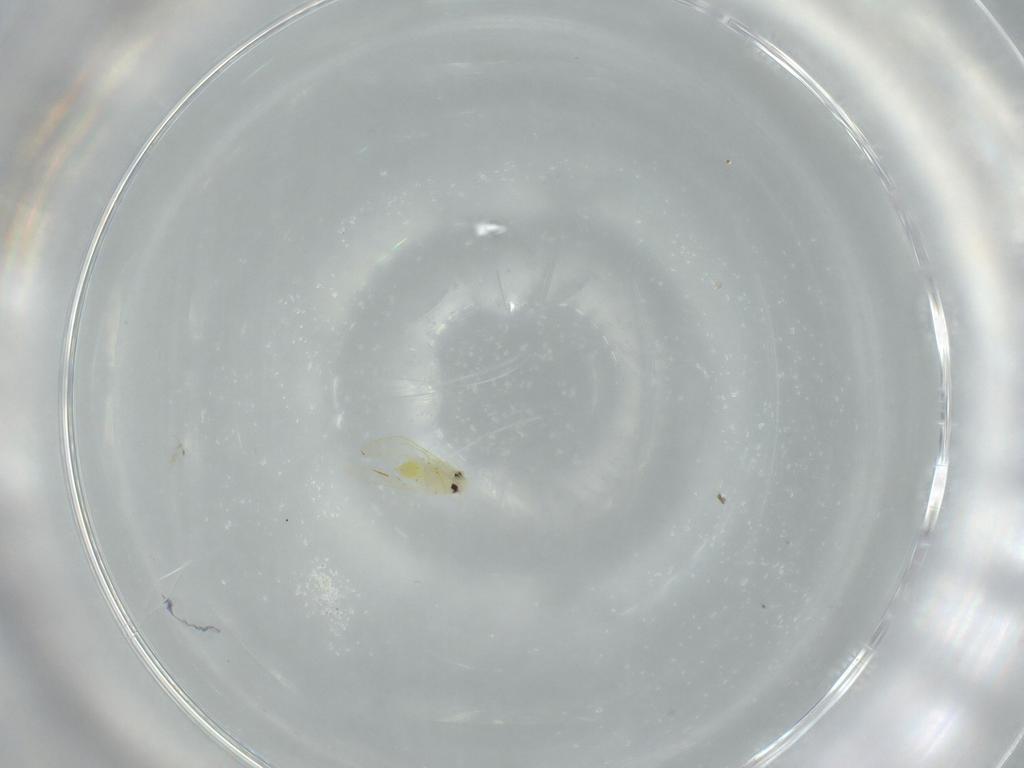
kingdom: Animalia
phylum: Arthropoda
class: Insecta
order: Hemiptera
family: Aleyrodidae
